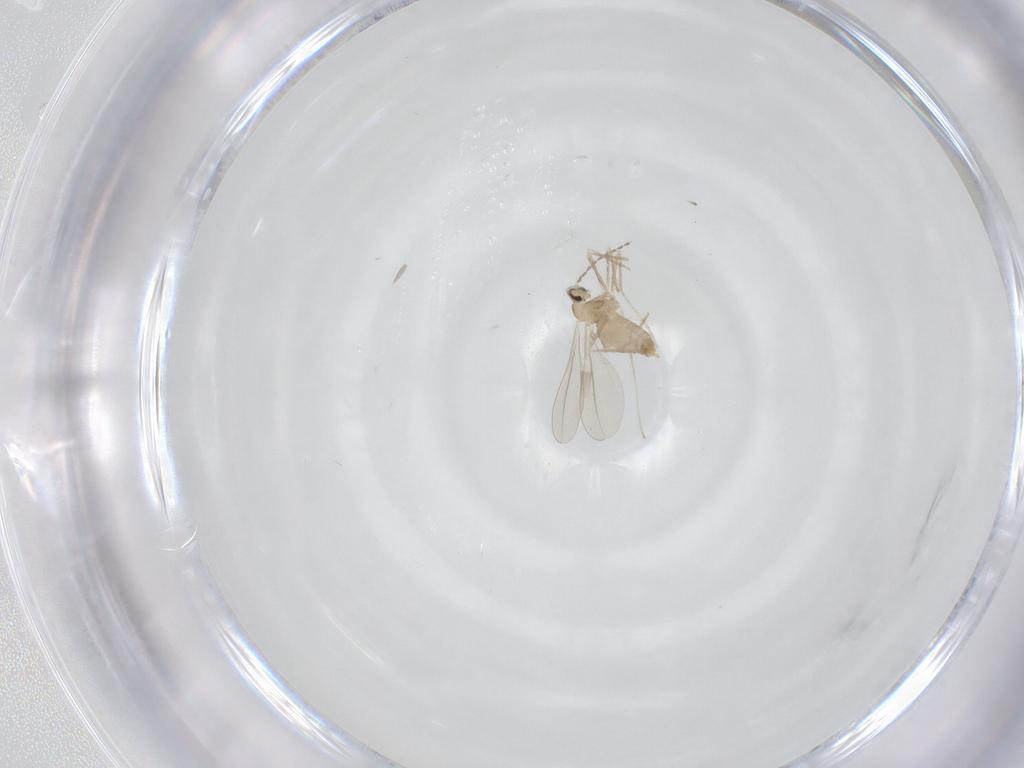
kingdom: Animalia
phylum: Arthropoda
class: Insecta
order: Diptera
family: Cecidomyiidae
